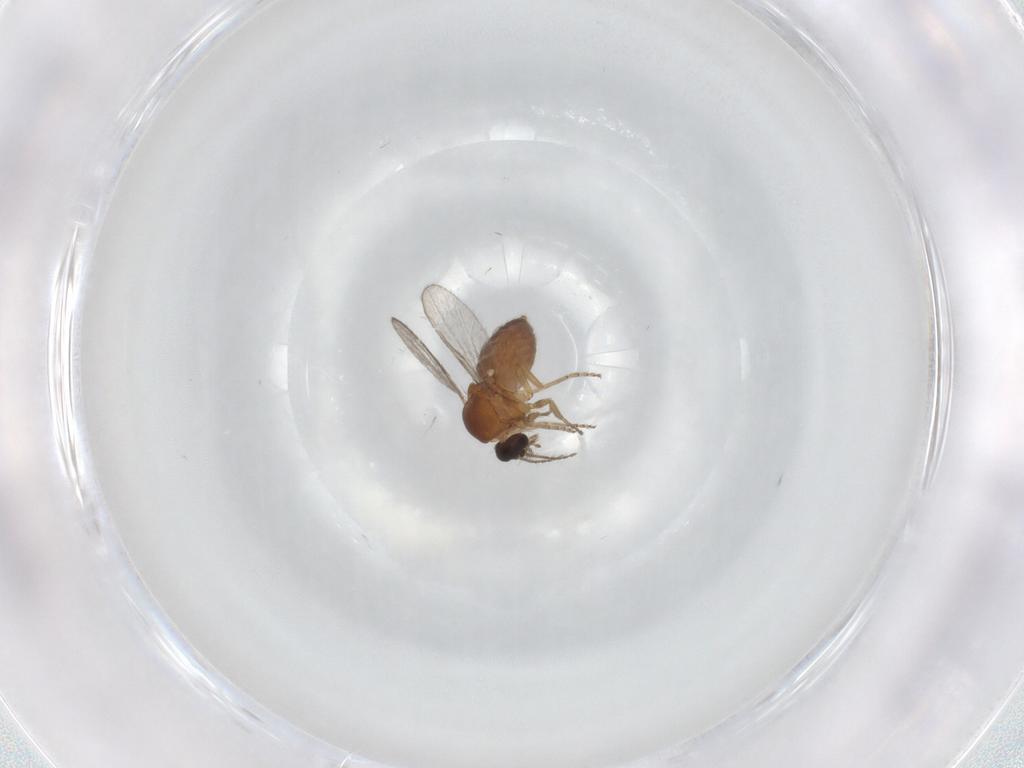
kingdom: Animalia
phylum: Arthropoda
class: Insecta
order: Diptera
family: Ceratopogonidae
